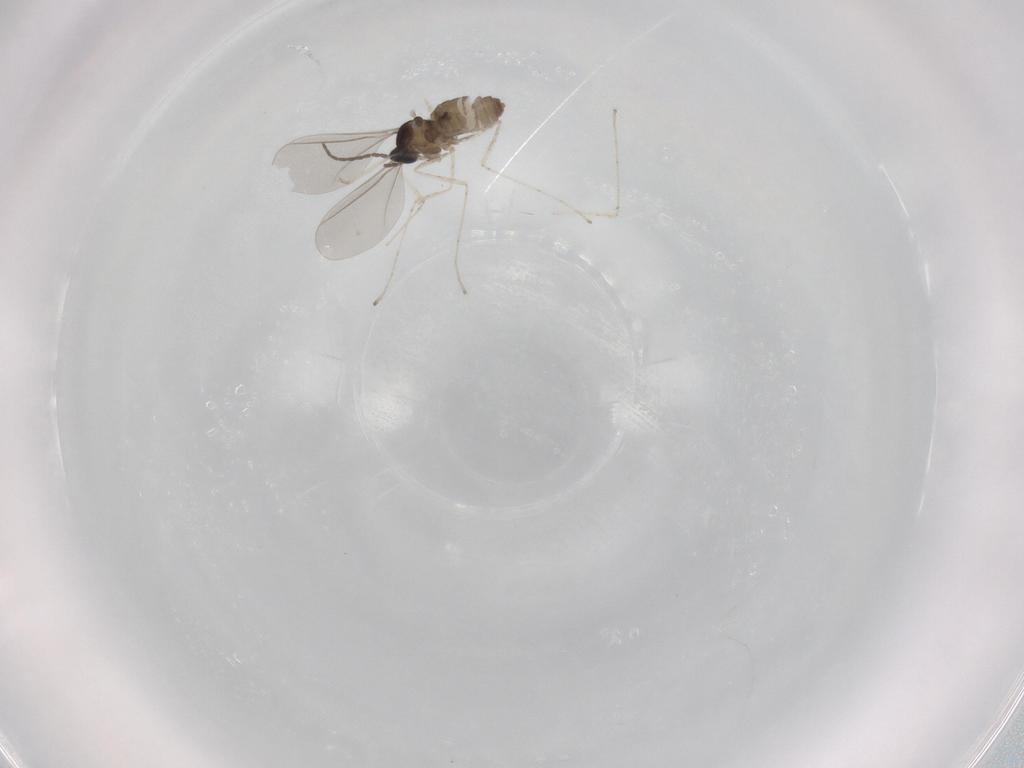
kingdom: Animalia
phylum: Arthropoda
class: Insecta
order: Diptera
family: Cecidomyiidae
